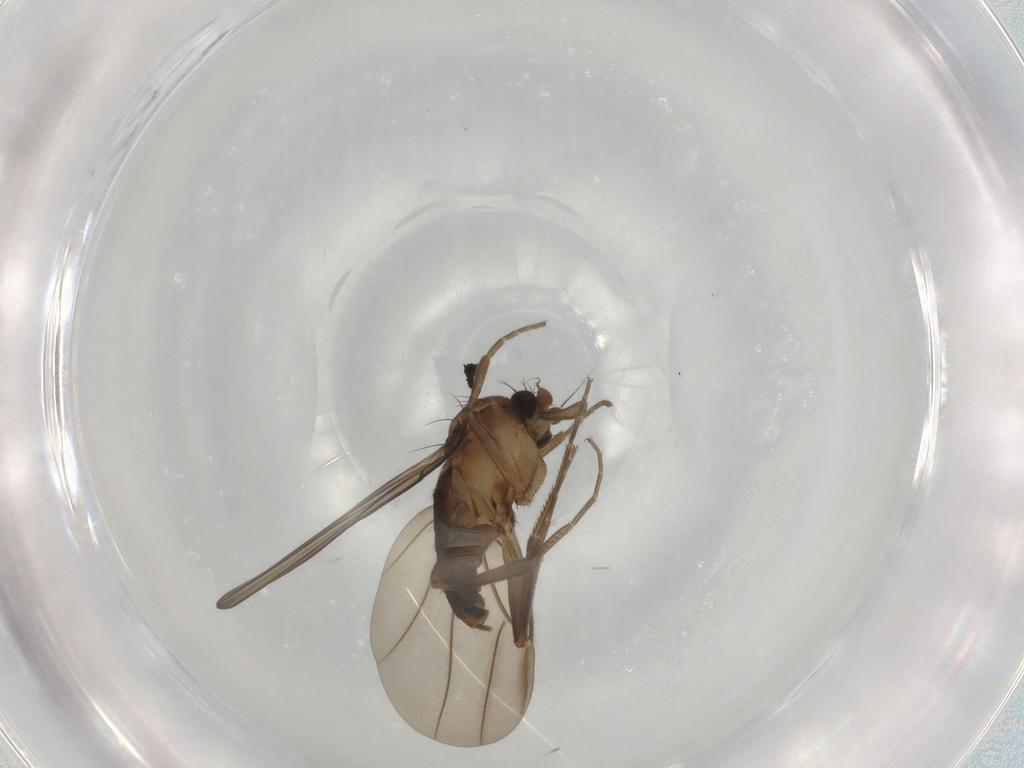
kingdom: Animalia
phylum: Arthropoda
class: Insecta
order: Diptera
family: Phoridae
